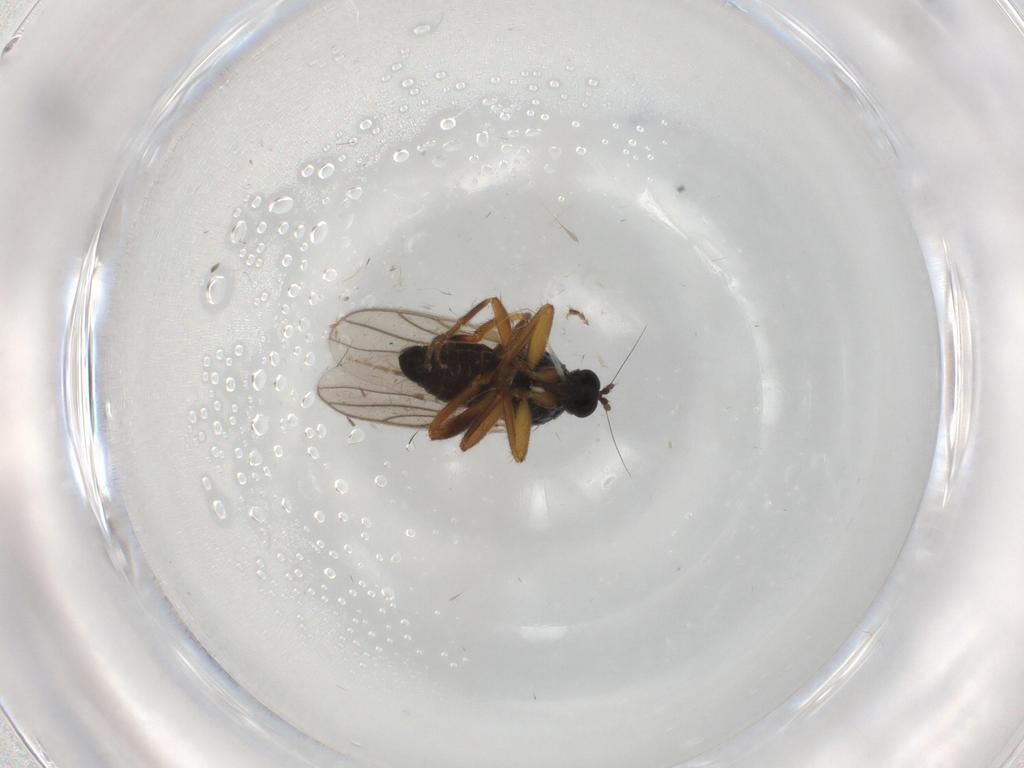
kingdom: Animalia
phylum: Arthropoda
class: Insecta
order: Diptera
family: Hybotidae
